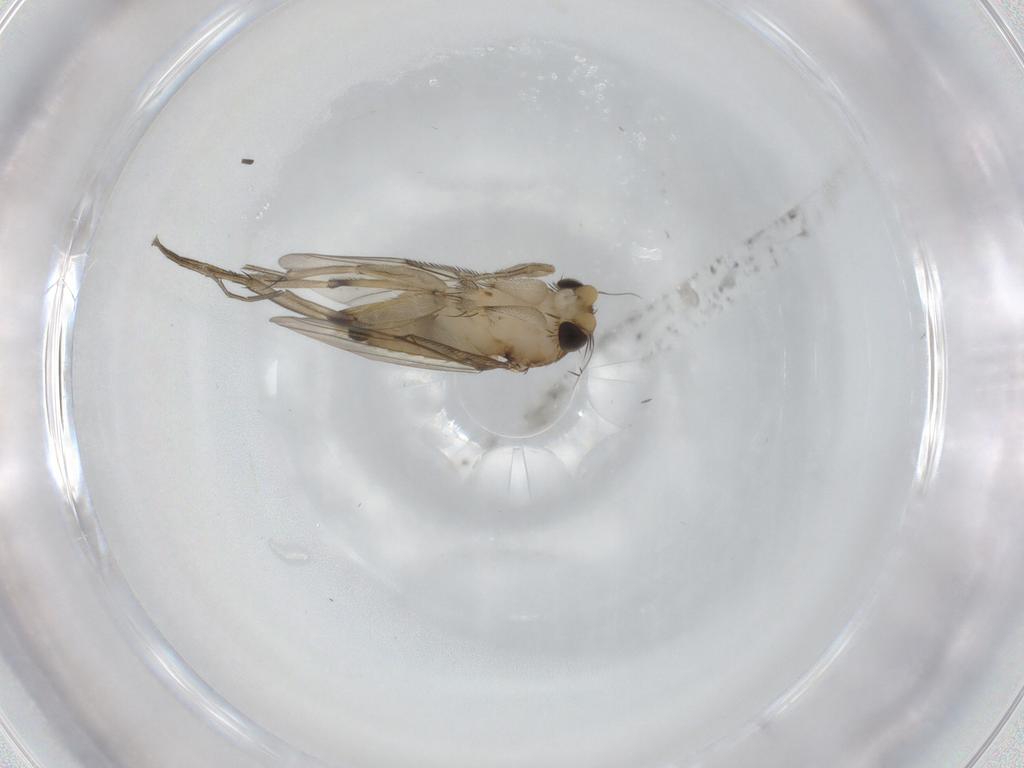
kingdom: Animalia
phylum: Arthropoda
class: Insecta
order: Diptera
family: Phoridae
